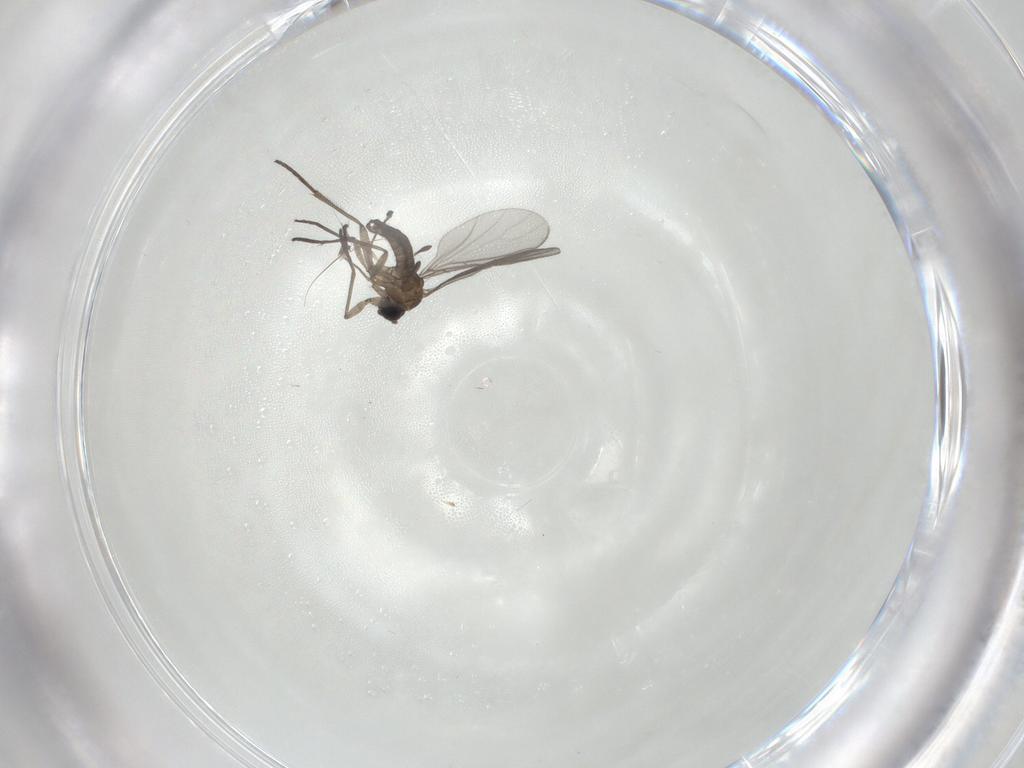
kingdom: Animalia
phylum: Arthropoda
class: Insecta
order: Diptera
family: Sciaridae
